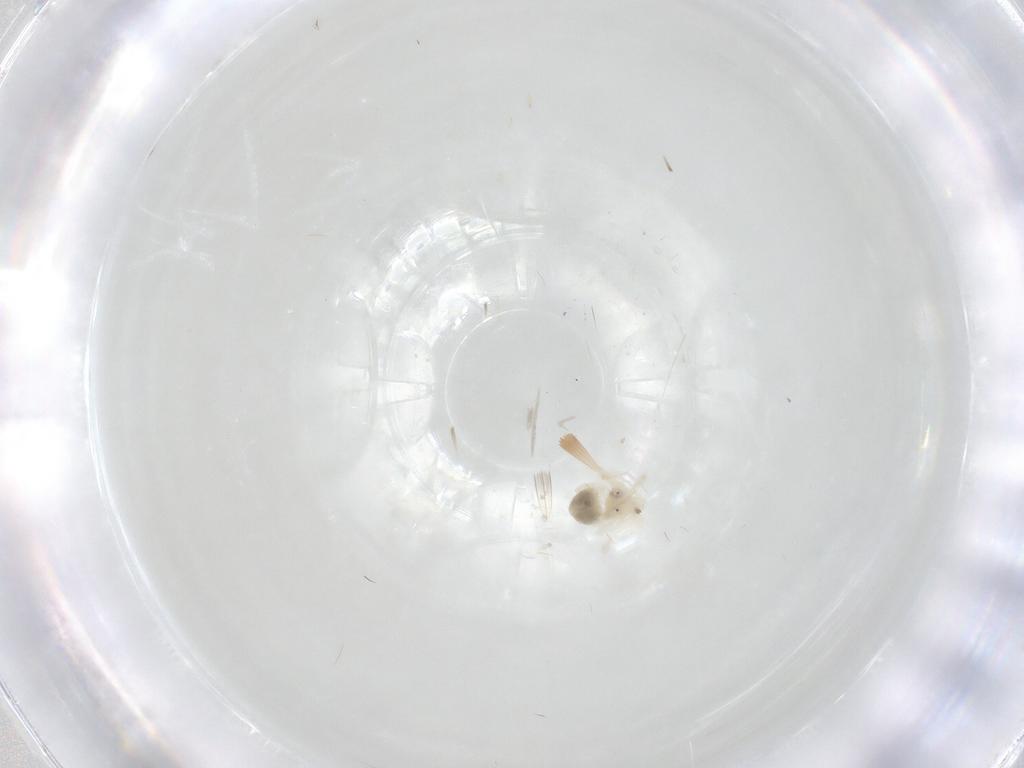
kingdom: Animalia
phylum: Arthropoda
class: Arachnida
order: Trombidiformes
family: Anystidae
